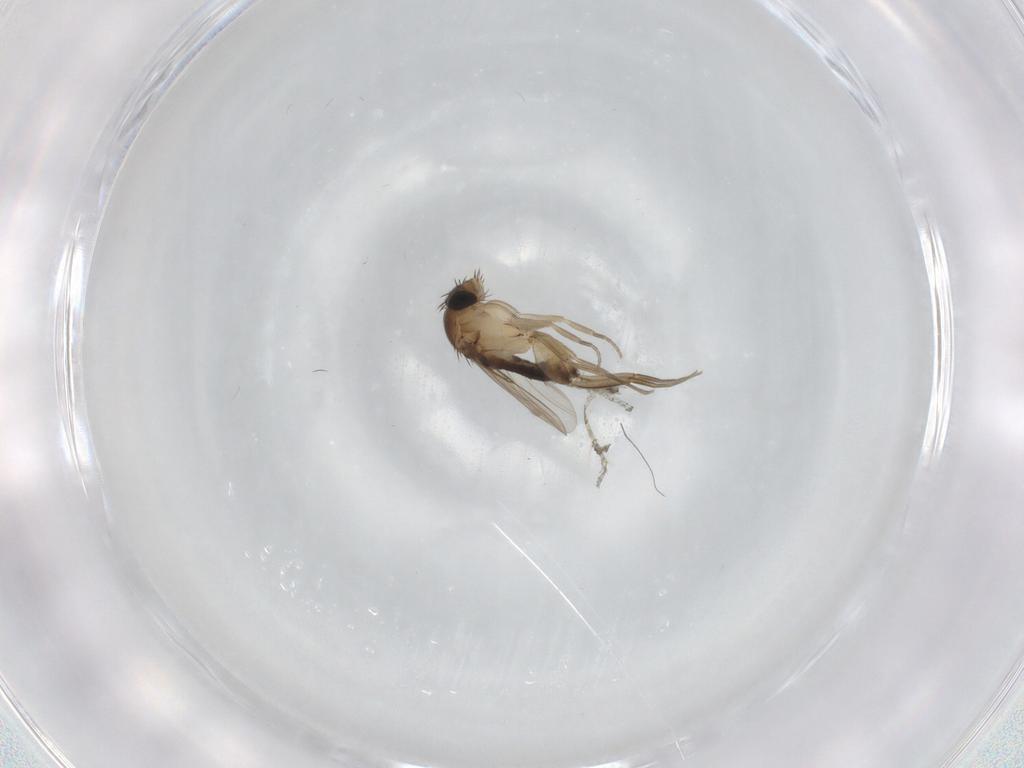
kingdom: Animalia
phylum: Arthropoda
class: Insecta
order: Diptera
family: Phoridae
